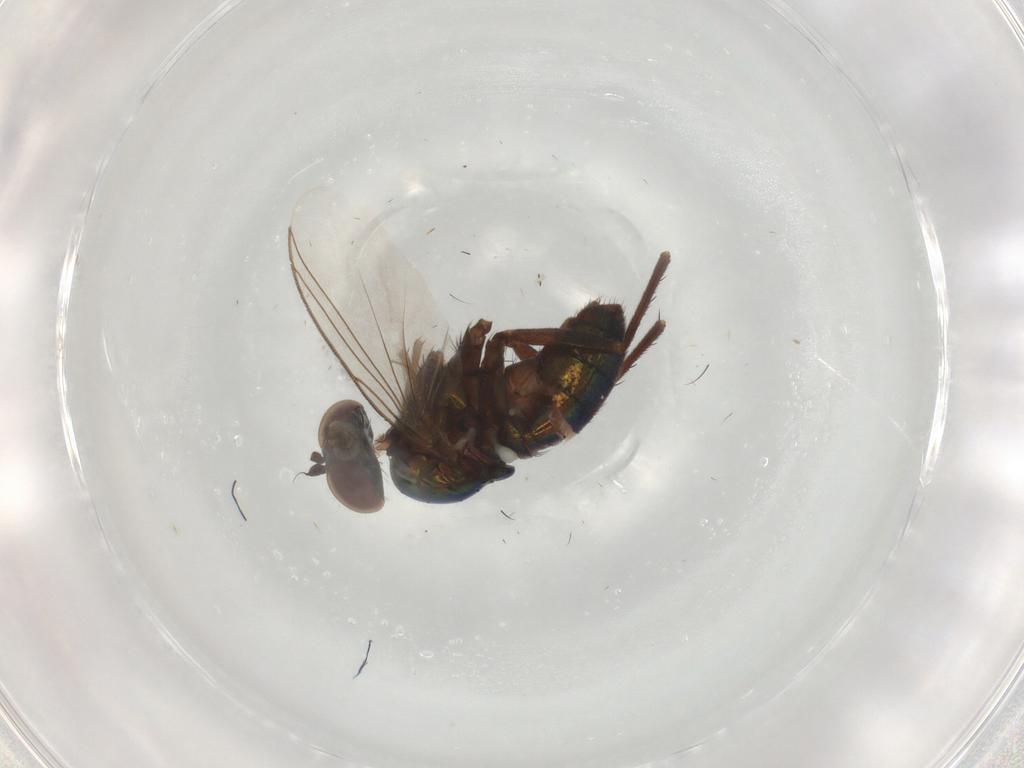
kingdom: Animalia
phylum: Arthropoda
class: Insecta
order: Diptera
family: Dolichopodidae
